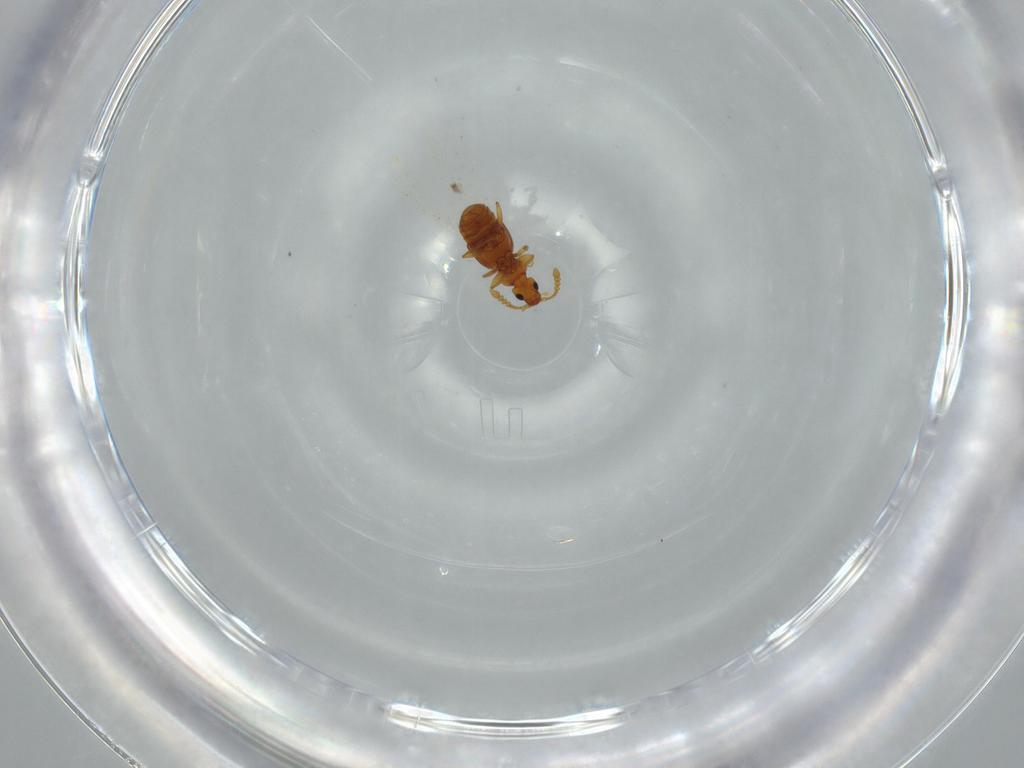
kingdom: Animalia
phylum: Arthropoda
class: Insecta
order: Coleoptera
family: Staphylinidae
